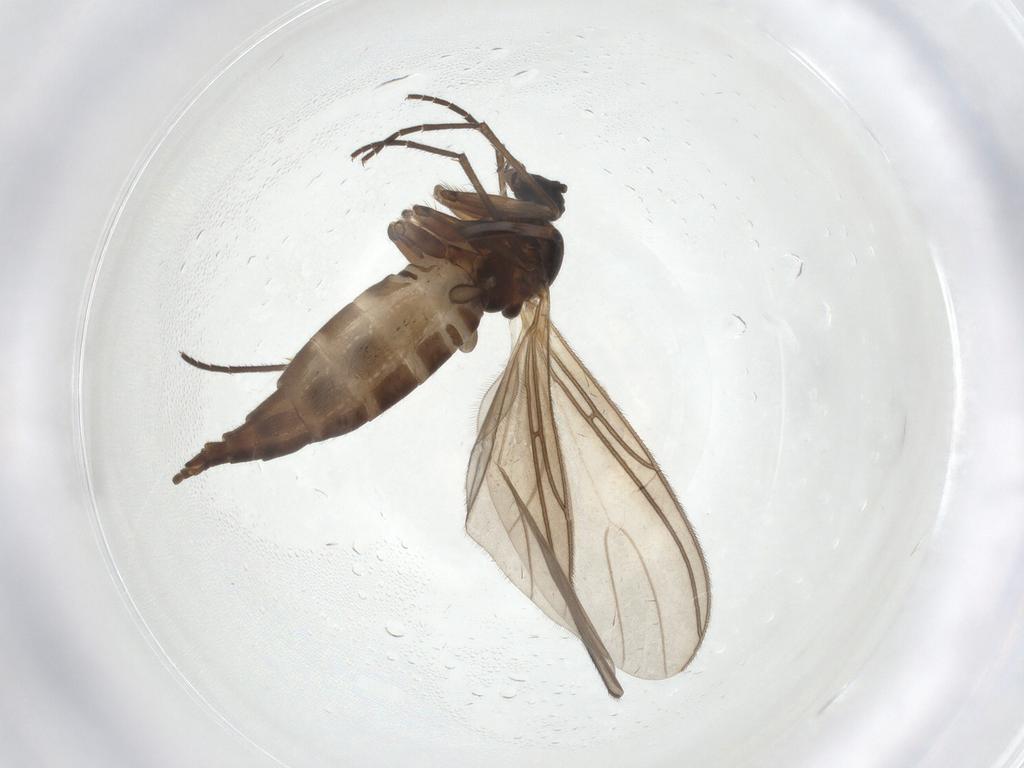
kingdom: Animalia
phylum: Arthropoda
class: Insecta
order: Diptera
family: Sciaridae
